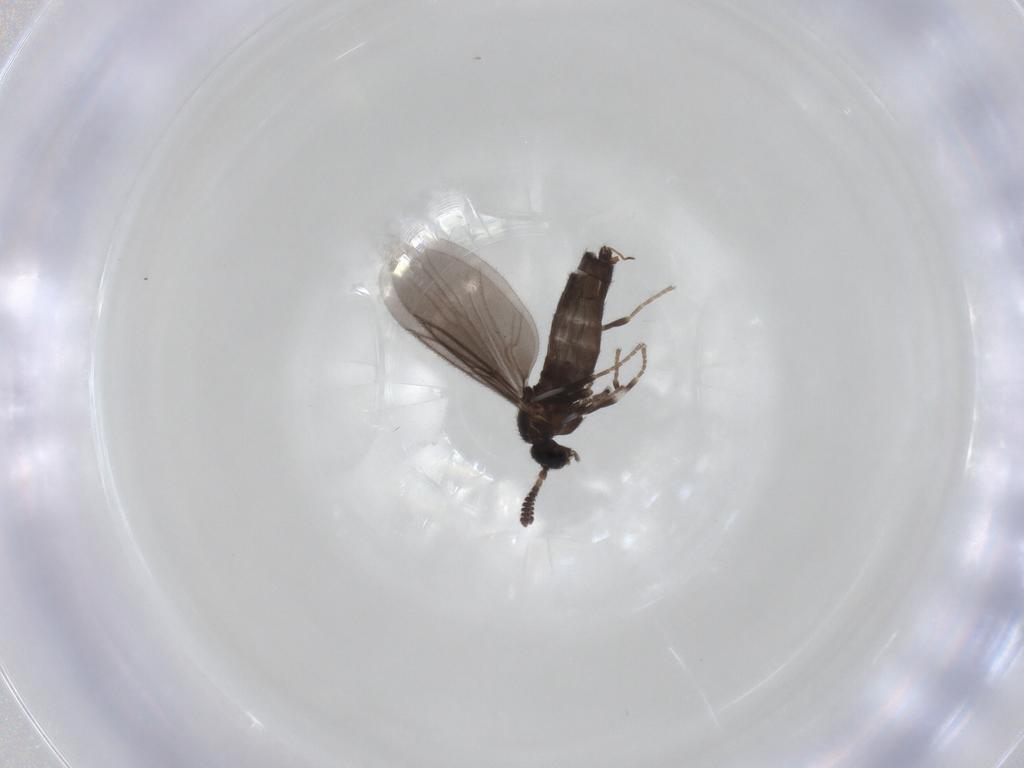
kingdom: Animalia
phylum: Arthropoda
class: Insecta
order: Diptera
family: Scatopsidae
